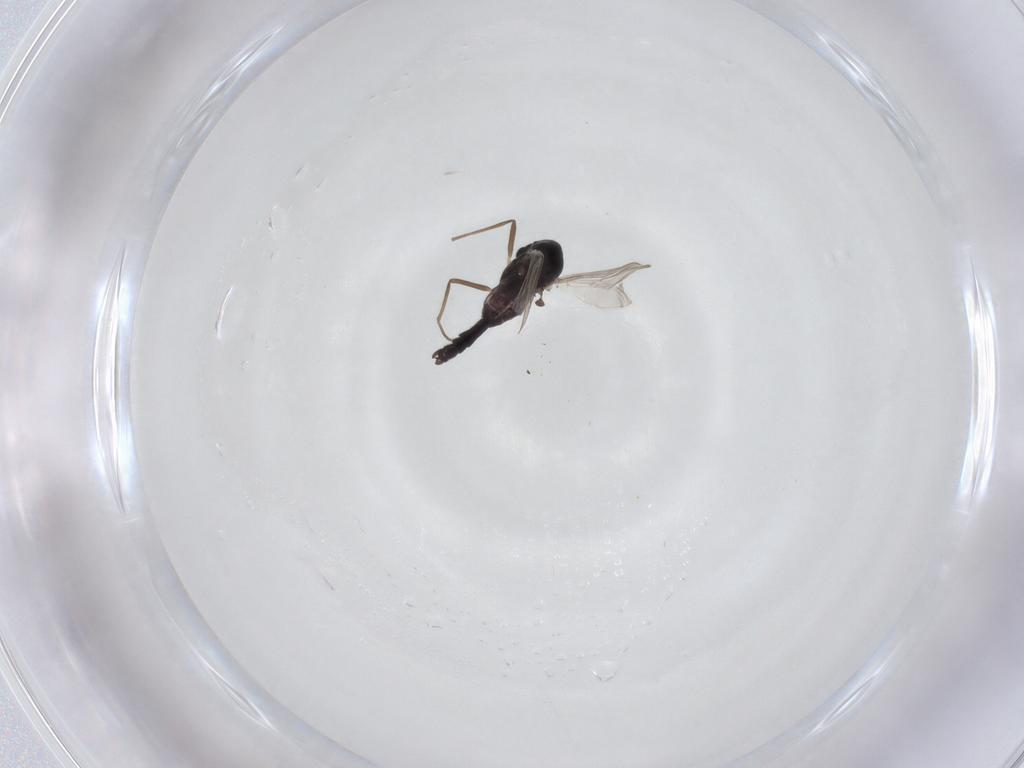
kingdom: Animalia
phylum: Arthropoda
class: Insecta
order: Diptera
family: Chironomidae
